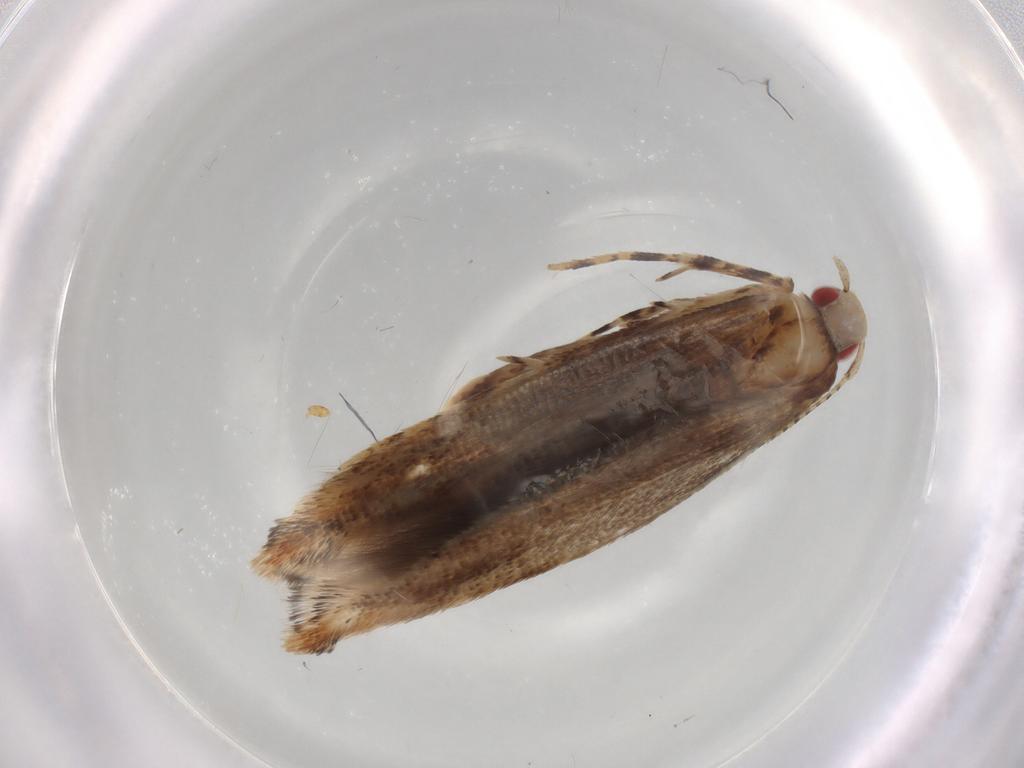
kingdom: Animalia
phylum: Arthropoda
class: Insecta
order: Lepidoptera
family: Cosmopterigidae
